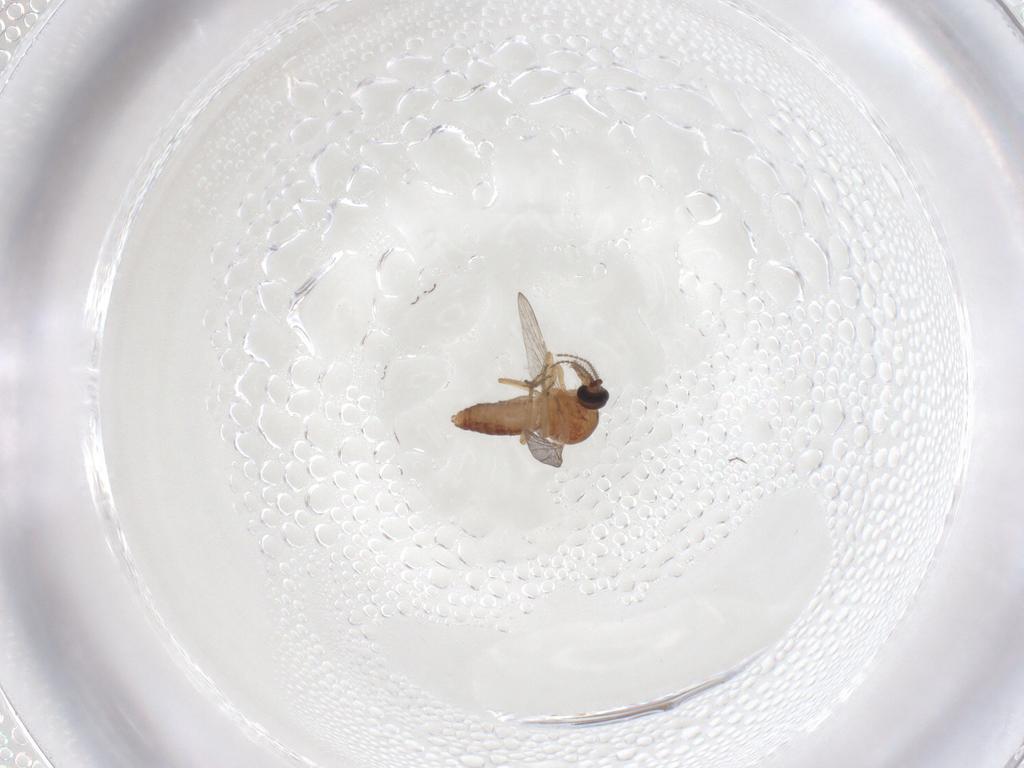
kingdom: Animalia
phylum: Arthropoda
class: Insecta
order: Diptera
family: Ceratopogonidae
